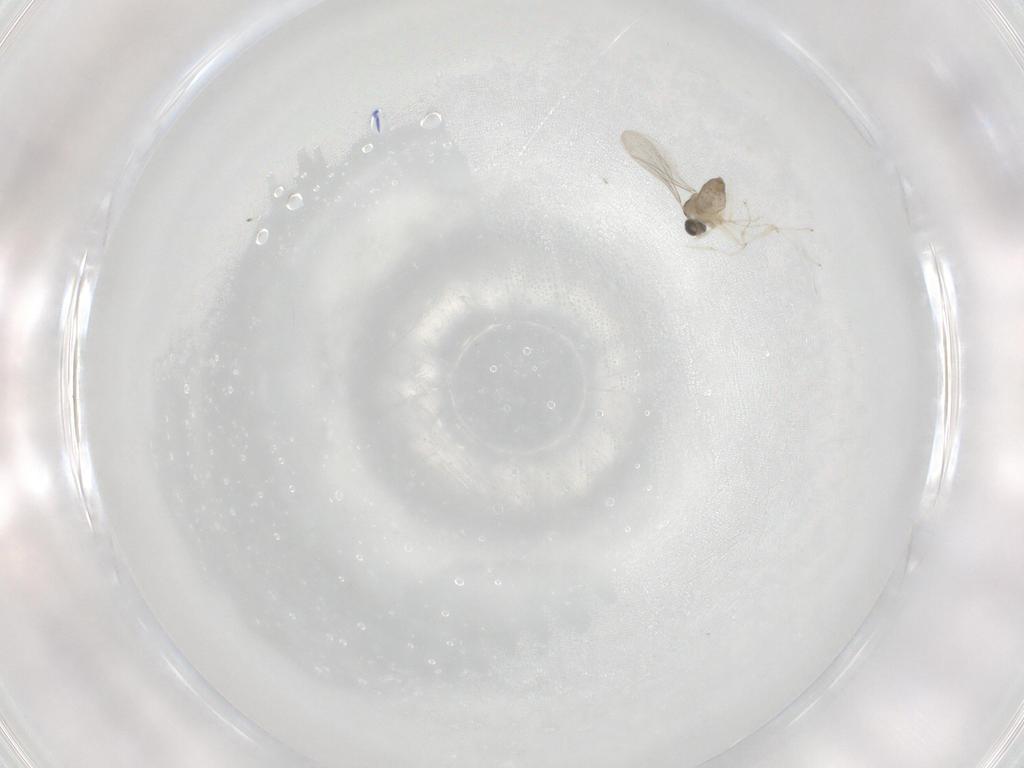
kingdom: Animalia
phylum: Arthropoda
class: Insecta
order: Diptera
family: Cecidomyiidae
